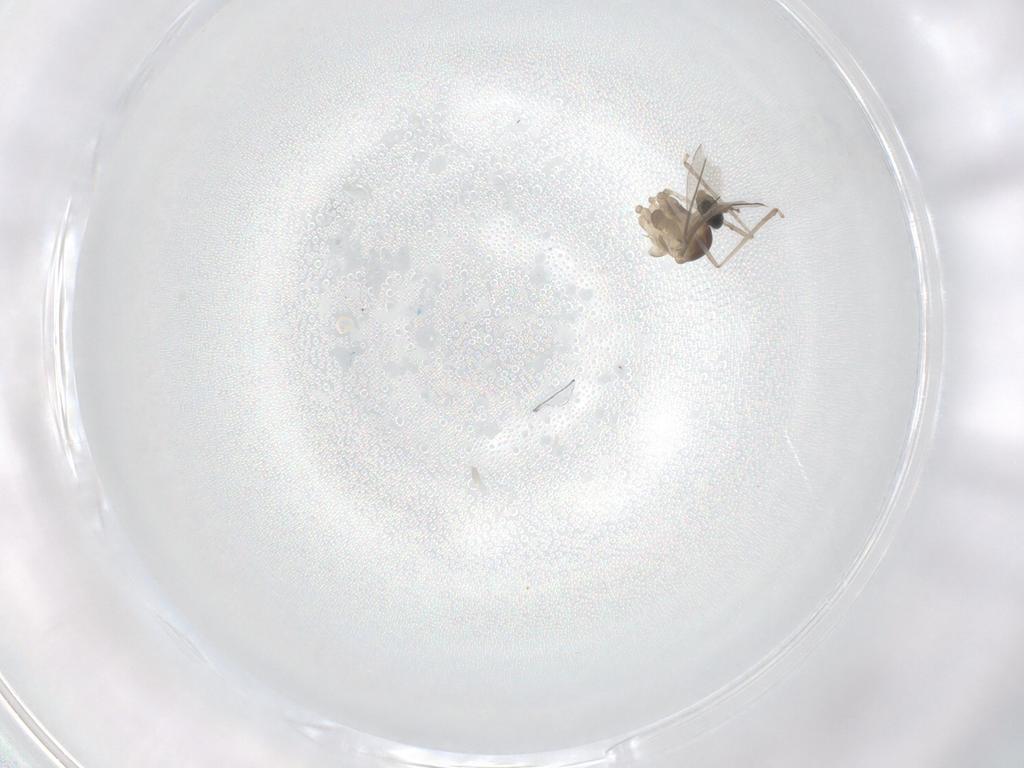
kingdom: Animalia
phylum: Arthropoda
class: Insecta
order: Diptera
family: Cecidomyiidae
